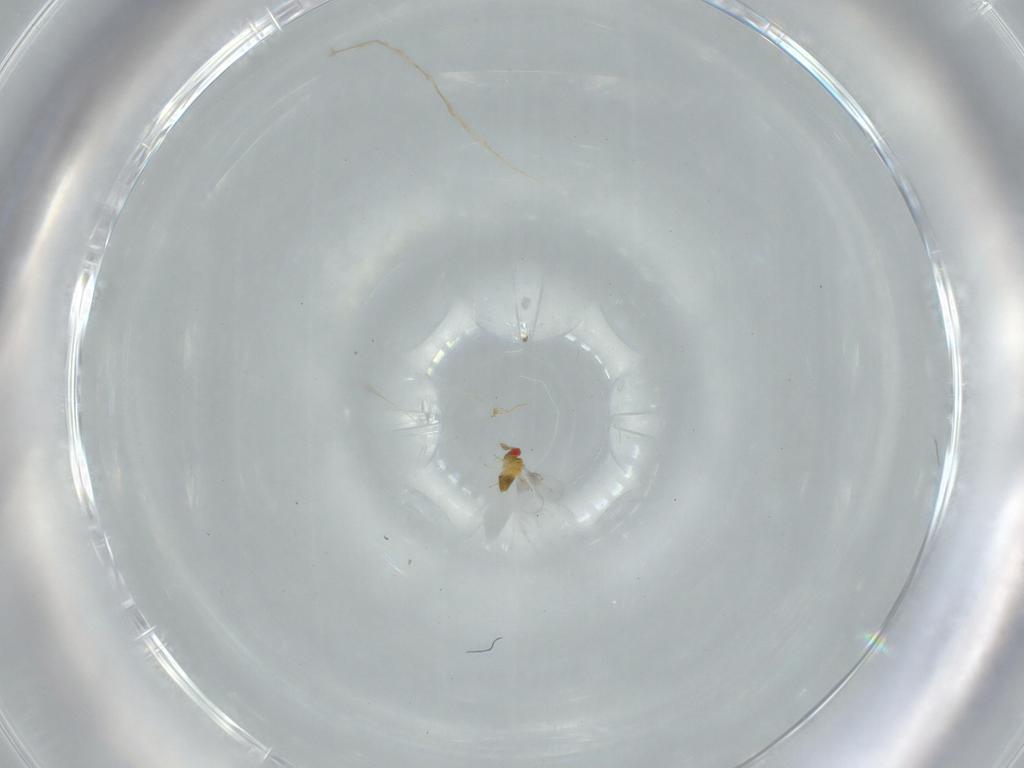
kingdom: Animalia
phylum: Arthropoda
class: Insecta
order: Hymenoptera
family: Trichogrammatidae
